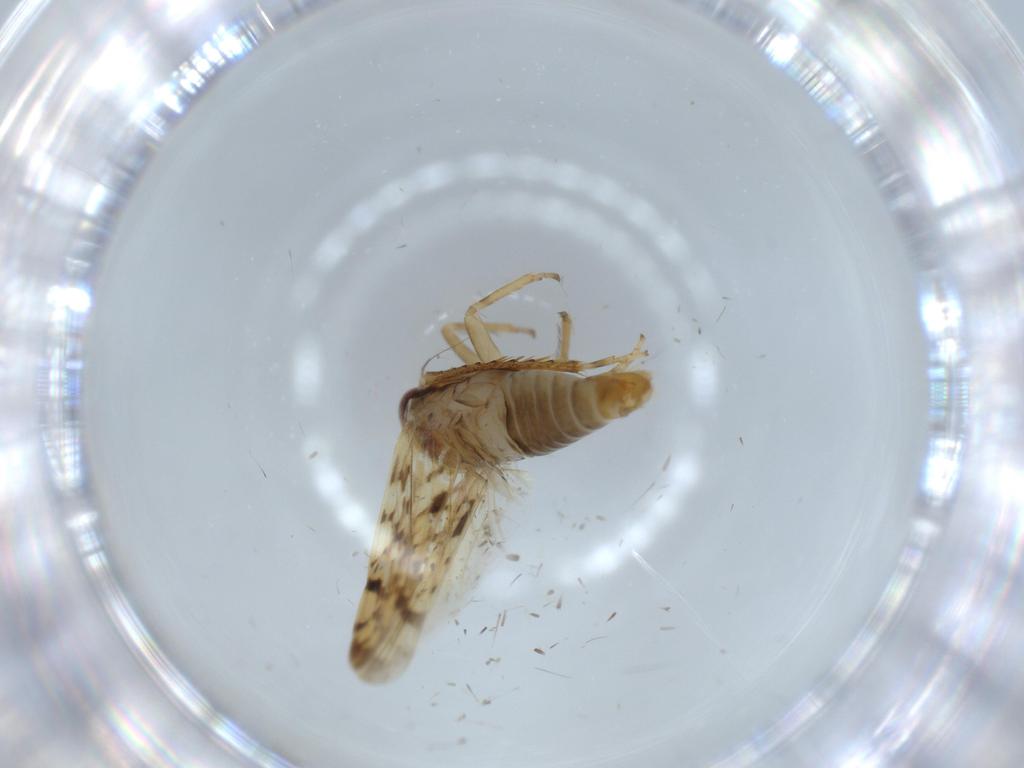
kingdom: Animalia
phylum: Arthropoda
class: Insecta
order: Hemiptera
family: Cicadellidae
